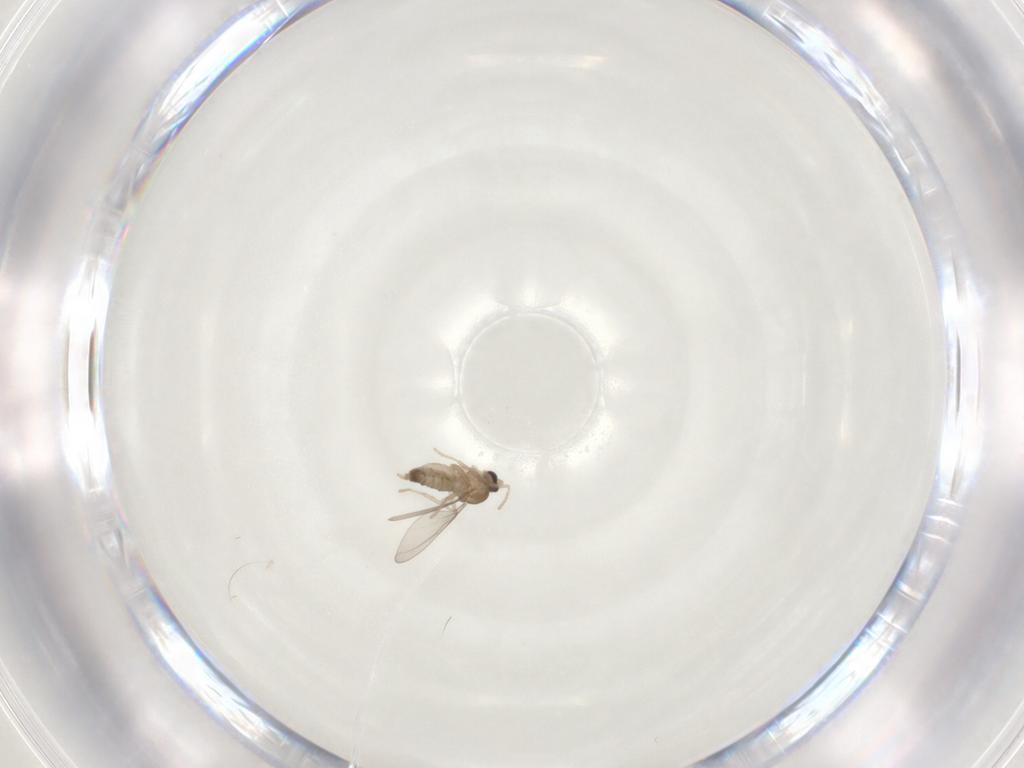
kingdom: Animalia
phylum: Arthropoda
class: Insecta
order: Diptera
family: Cecidomyiidae
